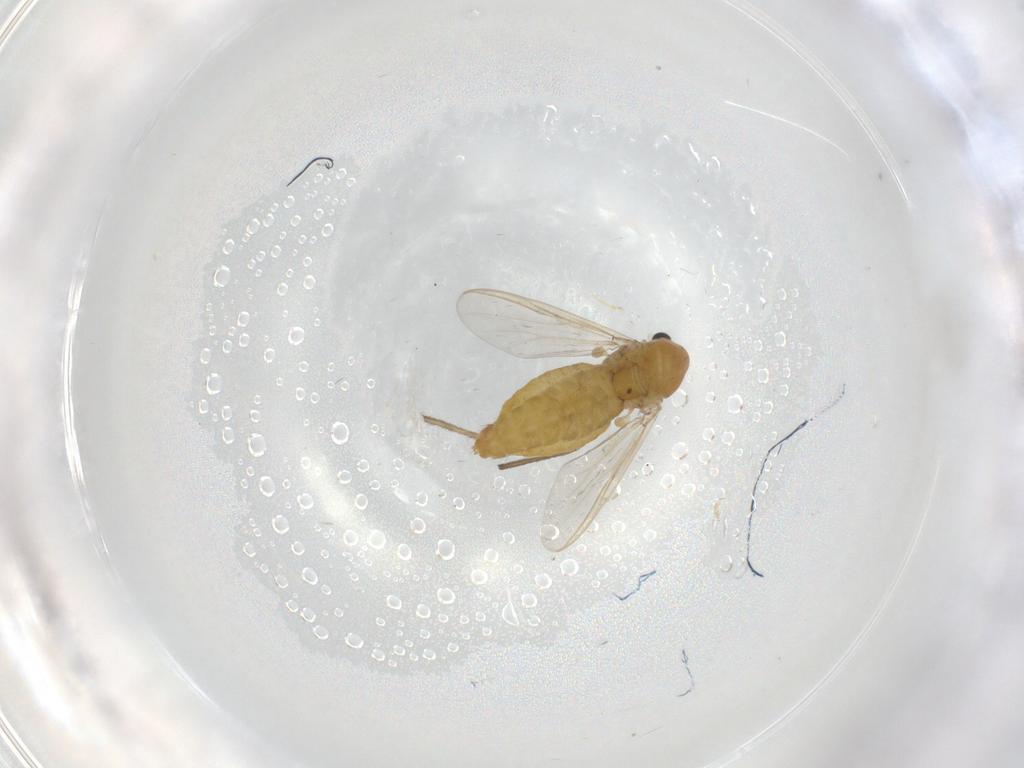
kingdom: Animalia
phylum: Arthropoda
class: Insecta
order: Diptera
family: Chironomidae
